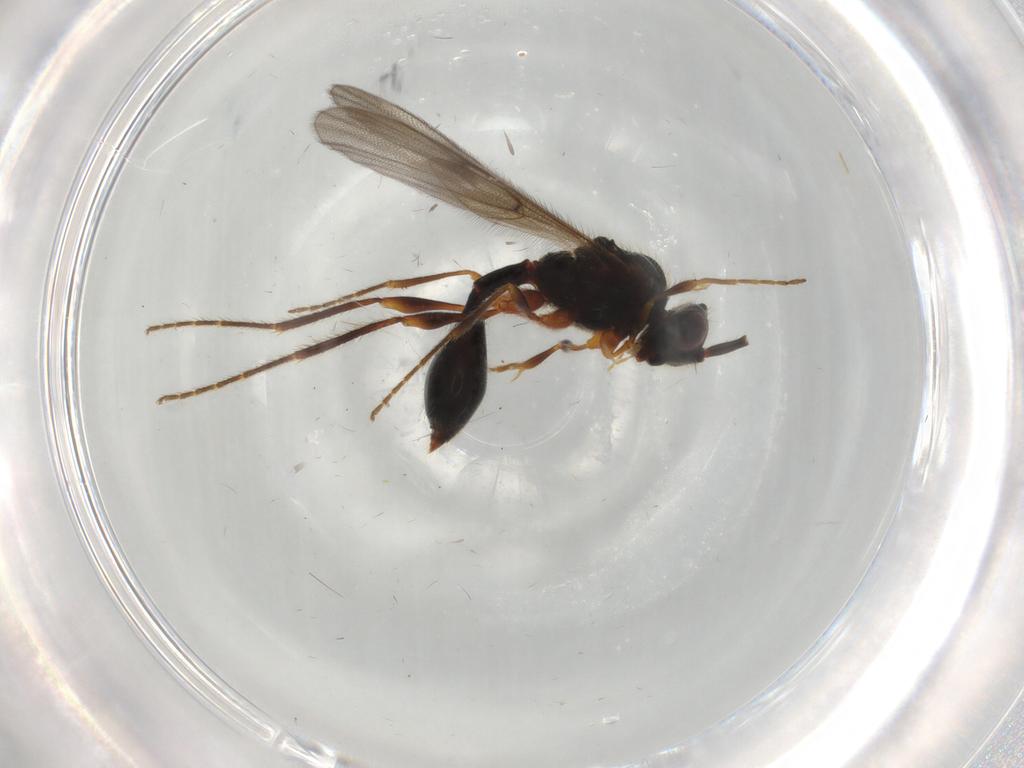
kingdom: Animalia
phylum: Arthropoda
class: Insecta
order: Hymenoptera
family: Diapriidae
